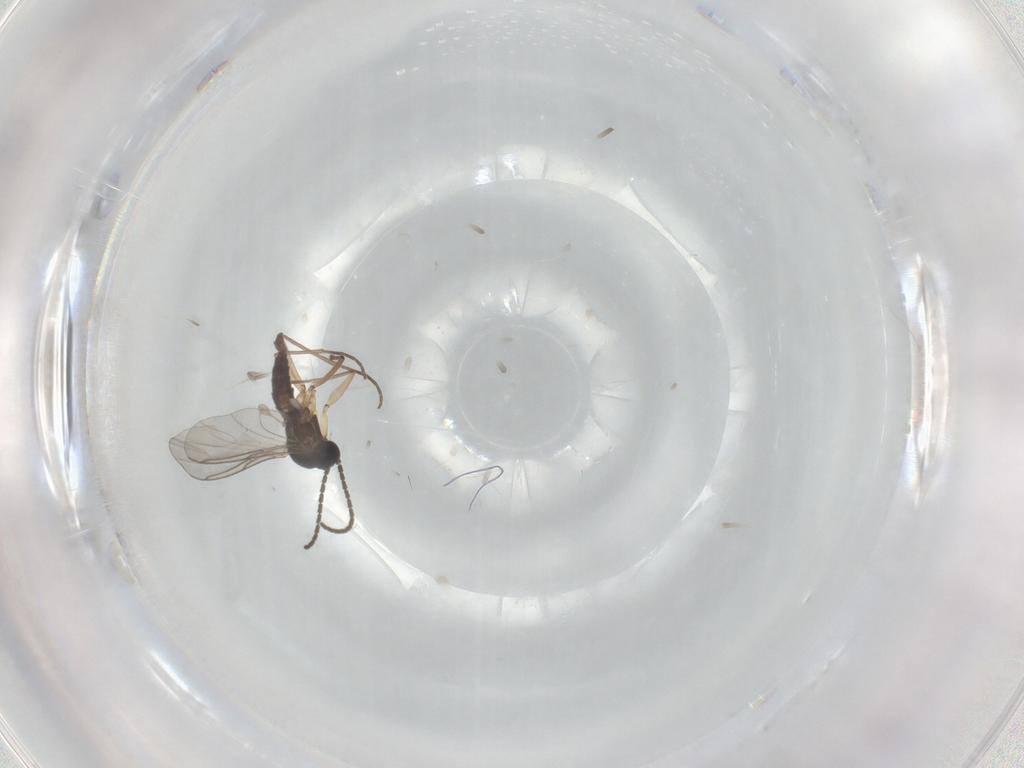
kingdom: Animalia
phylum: Arthropoda
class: Insecta
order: Diptera
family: Sciaridae
